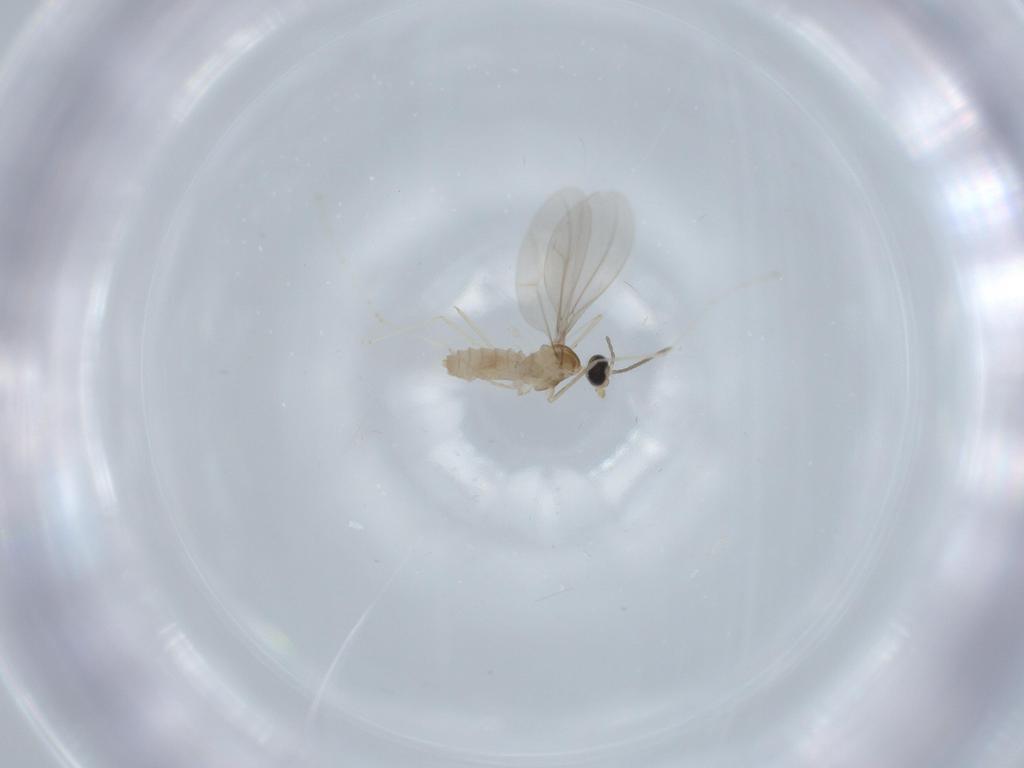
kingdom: Animalia
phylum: Arthropoda
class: Insecta
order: Diptera
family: Cecidomyiidae
